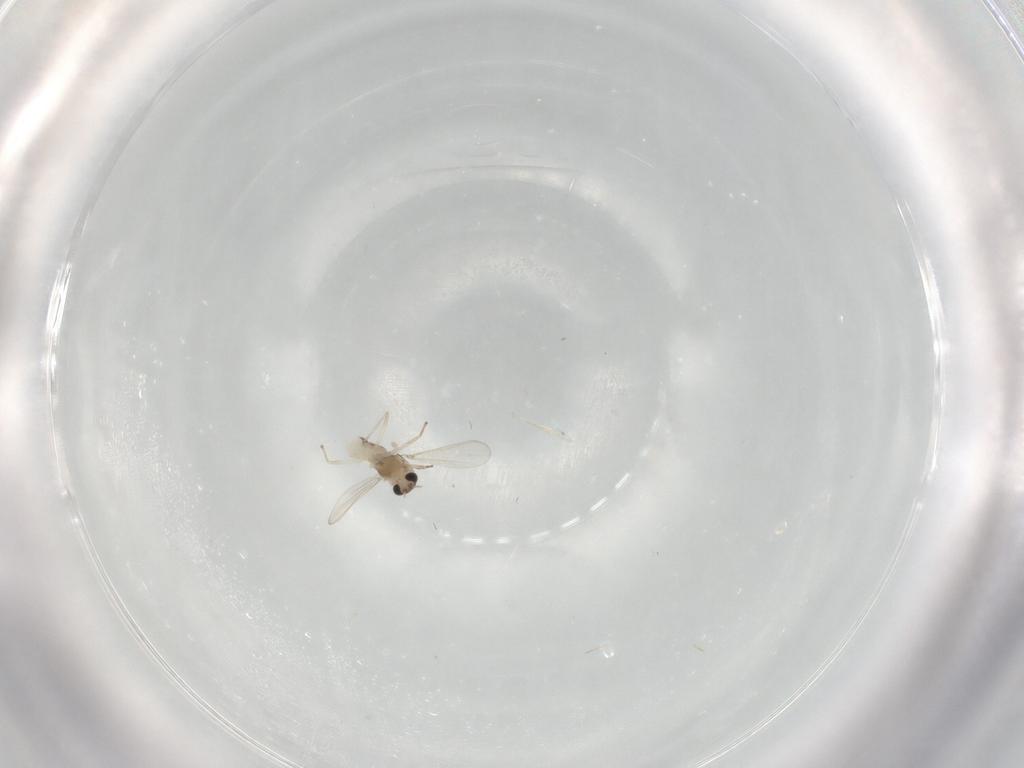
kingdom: Animalia
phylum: Arthropoda
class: Insecta
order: Diptera
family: Chironomidae
